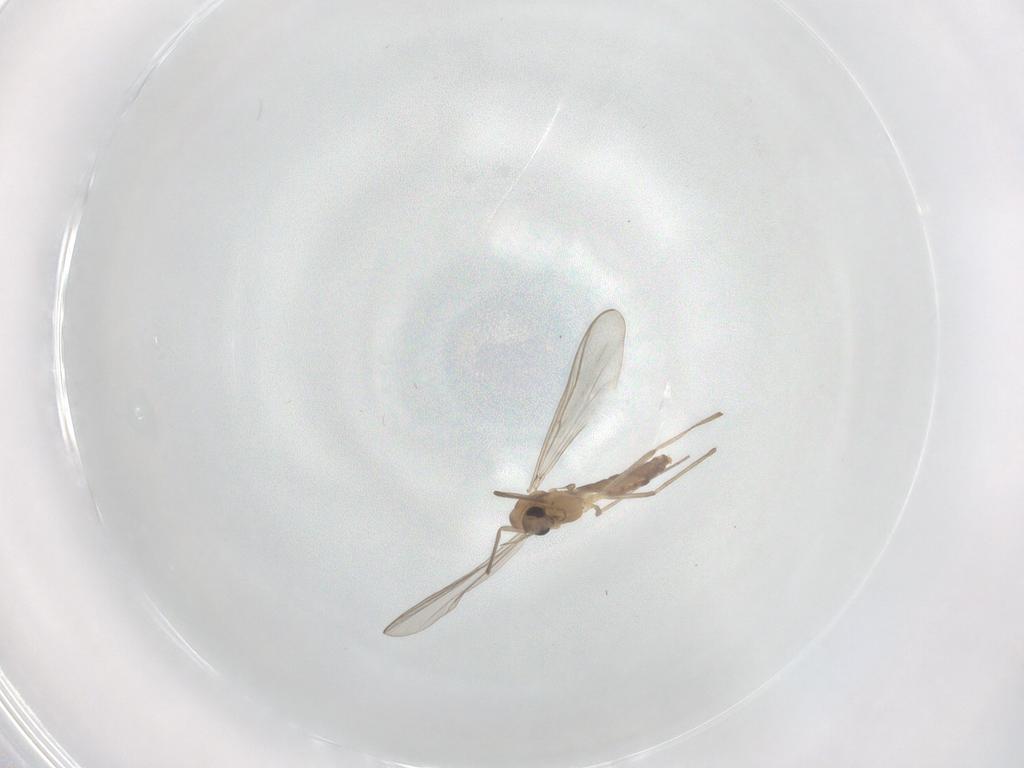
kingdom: Animalia
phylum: Arthropoda
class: Insecta
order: Diptera
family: Chironomidae
